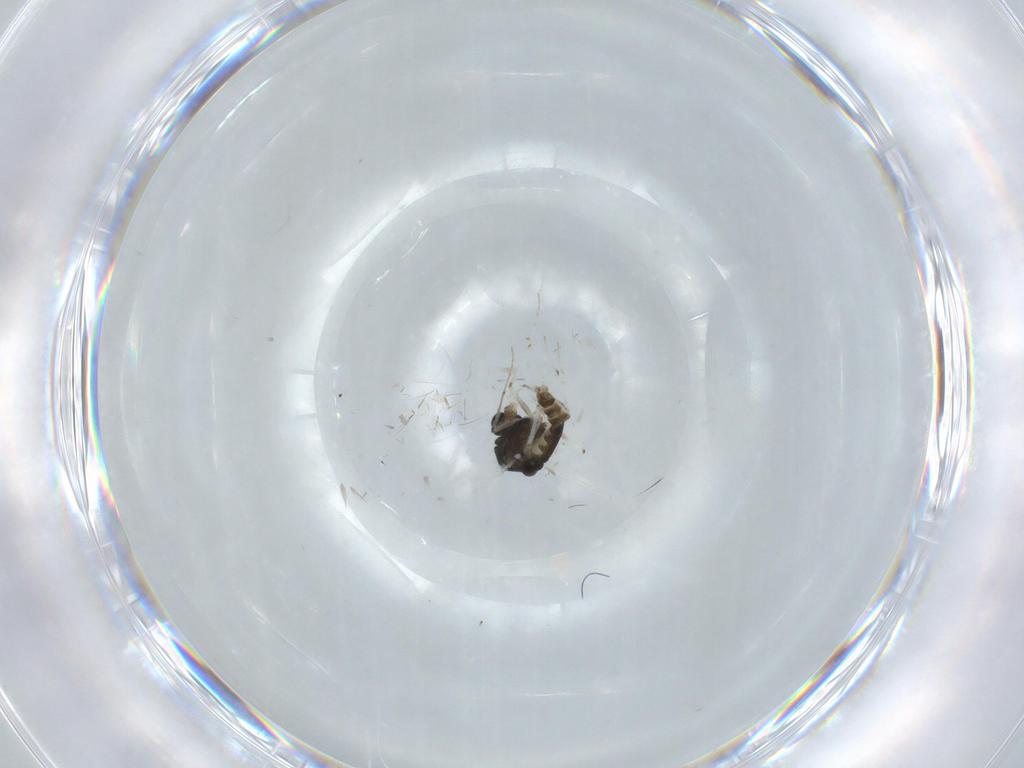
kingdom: Animalia
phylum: Arthropoda
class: Insecta
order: Diptera
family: Chironomidae
